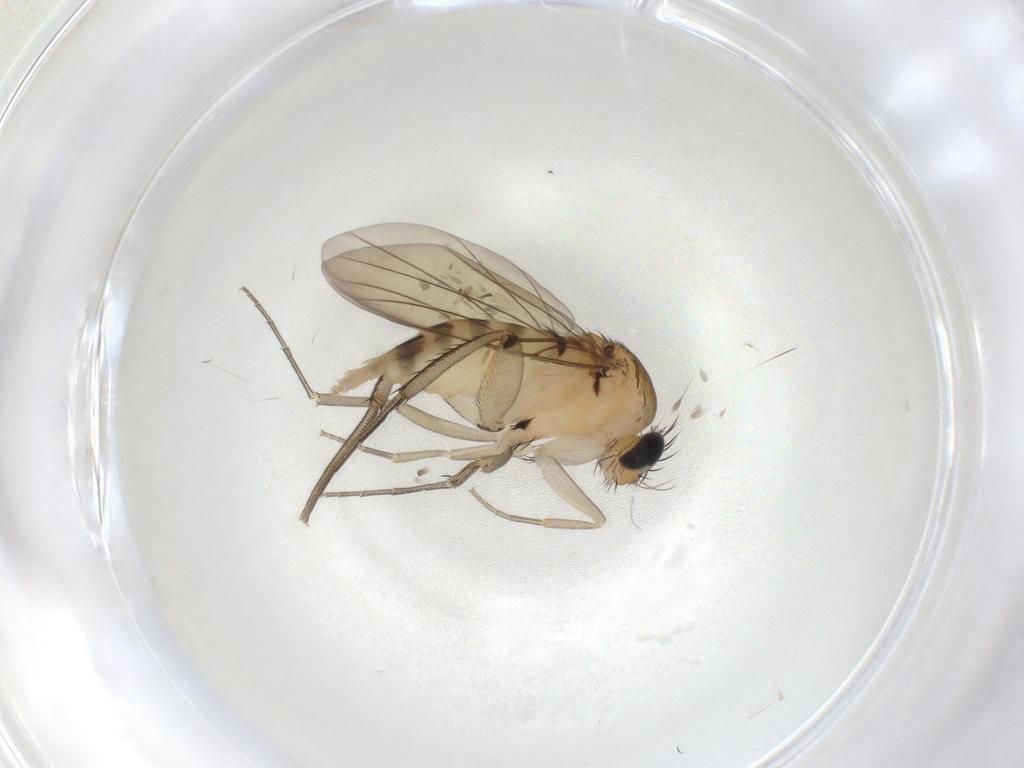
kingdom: Animalia
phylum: Arthropoda
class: Insecta
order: Diptera
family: Phoridae
